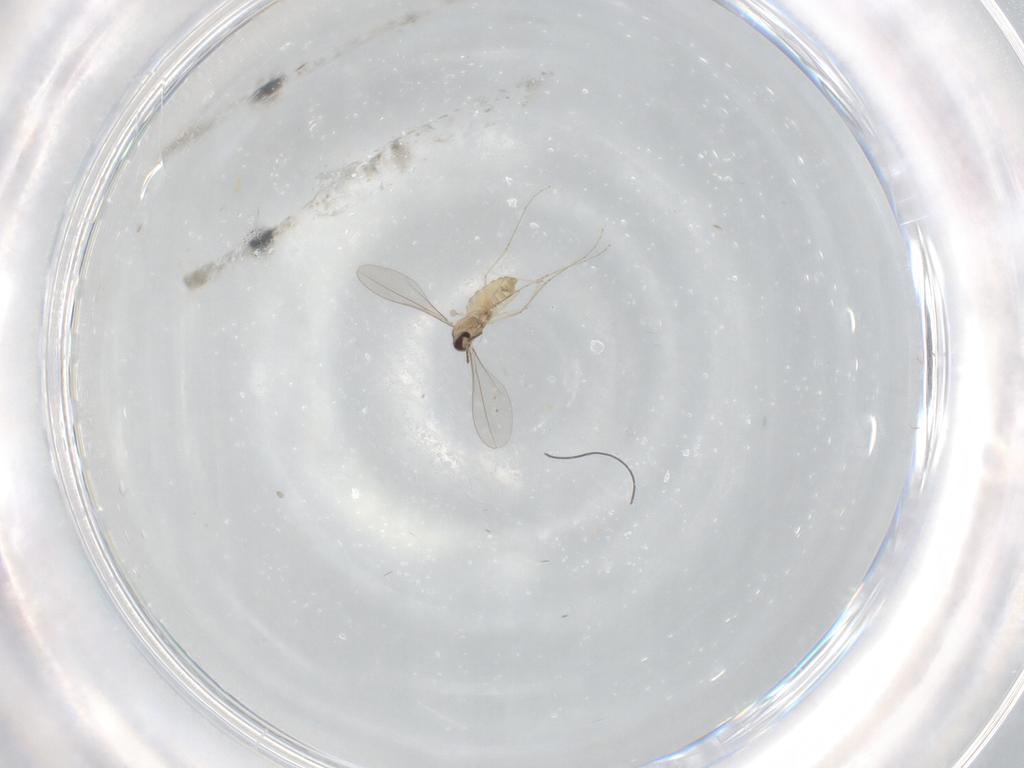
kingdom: Animalia
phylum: Arthropoda
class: Insecta
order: Diptera
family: Cecidomyiidae
